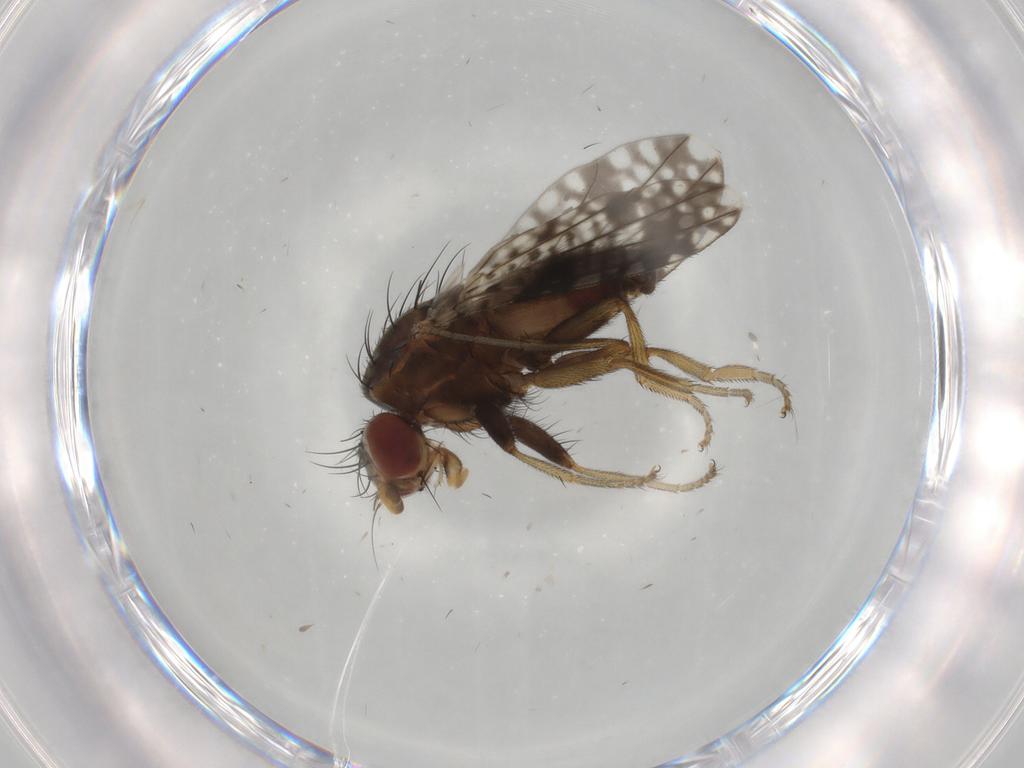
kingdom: Animalia
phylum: Arthropoda
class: Insecta
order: Diptera
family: Tephritidae
